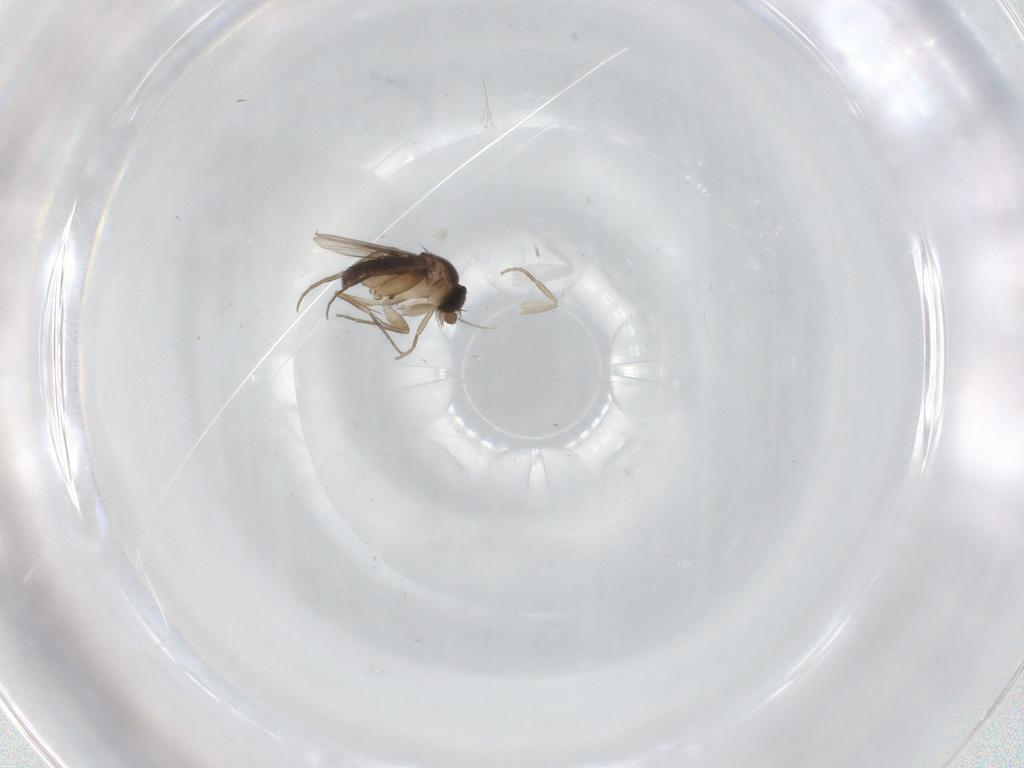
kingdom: Animalia
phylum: Arthropoda
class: Insecta
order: Diptera
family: Phoridae
